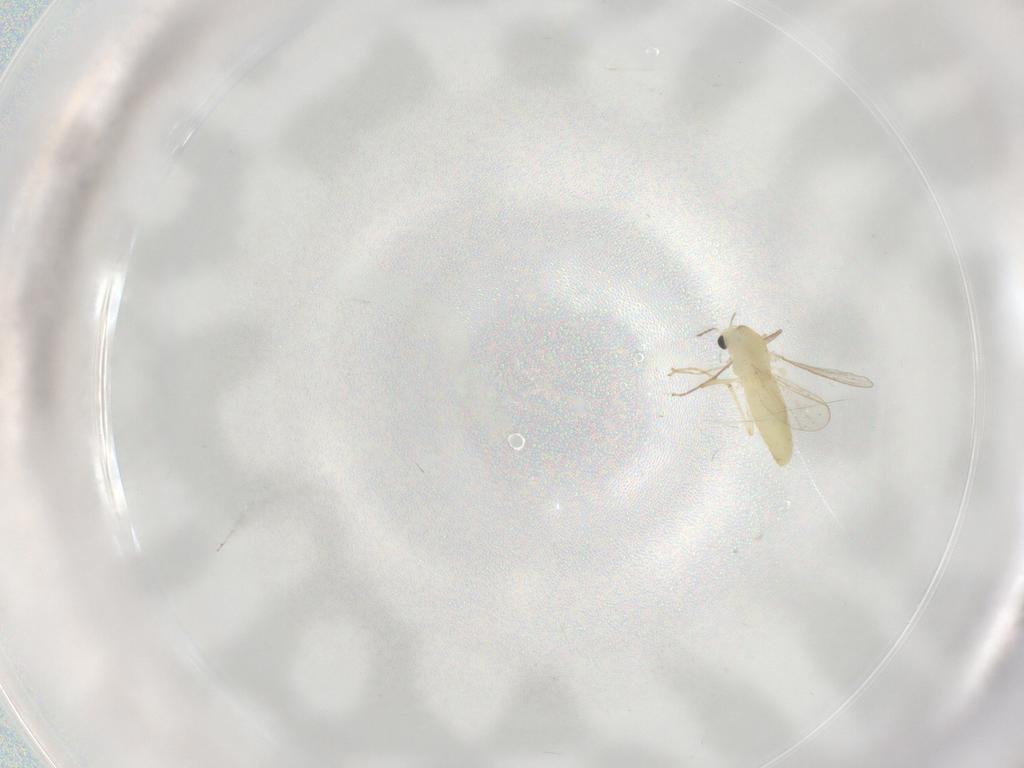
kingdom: Animalia
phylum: Arthropoda
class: Insecta
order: Diptera
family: Chironomidae
